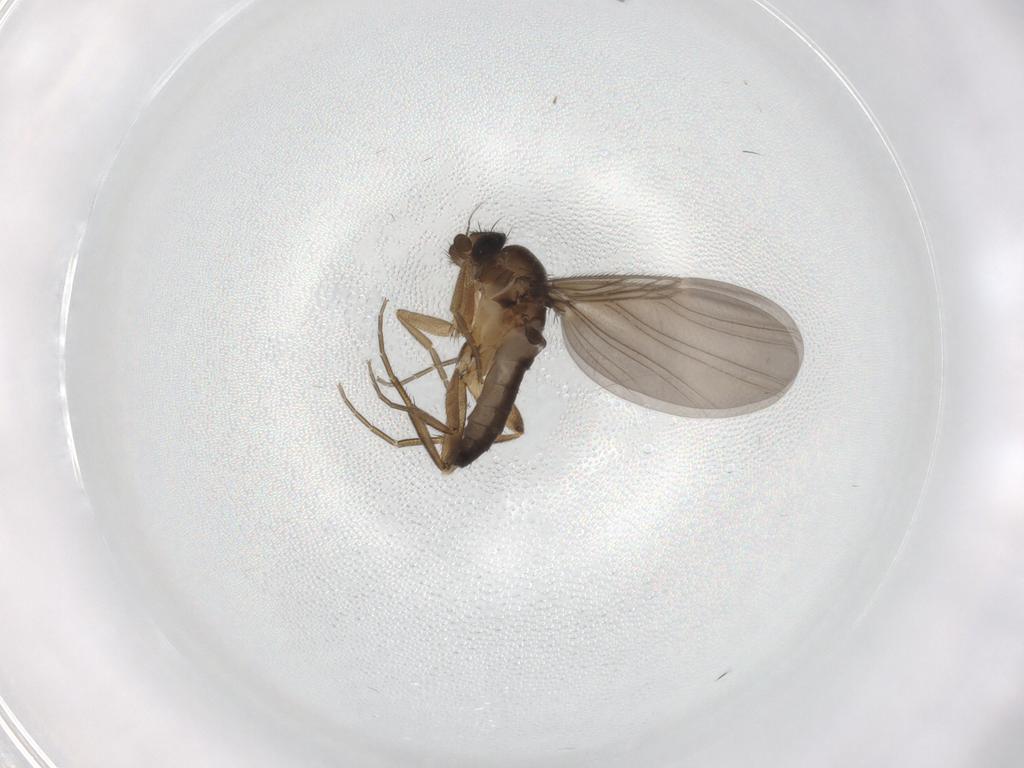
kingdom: Animalia
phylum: Arthropoda
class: Insecta
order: Diptera
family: Phoridae
